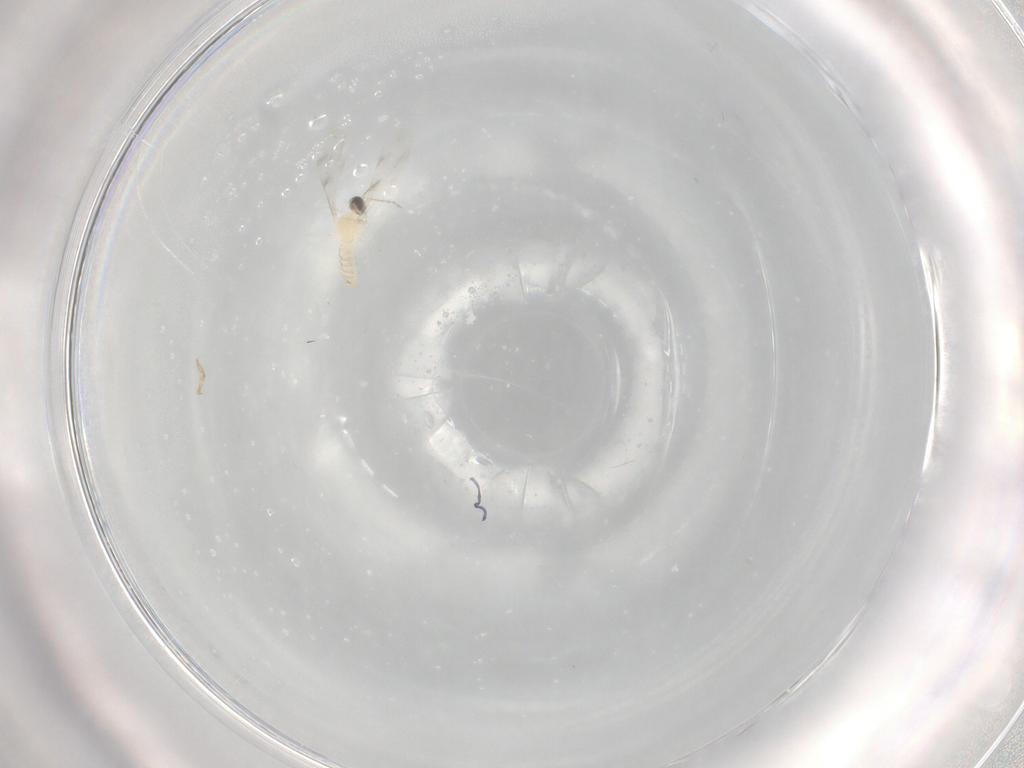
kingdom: Animalia
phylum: Arthropoda
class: Insecta
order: Diptera
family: Cecidomyiidae
